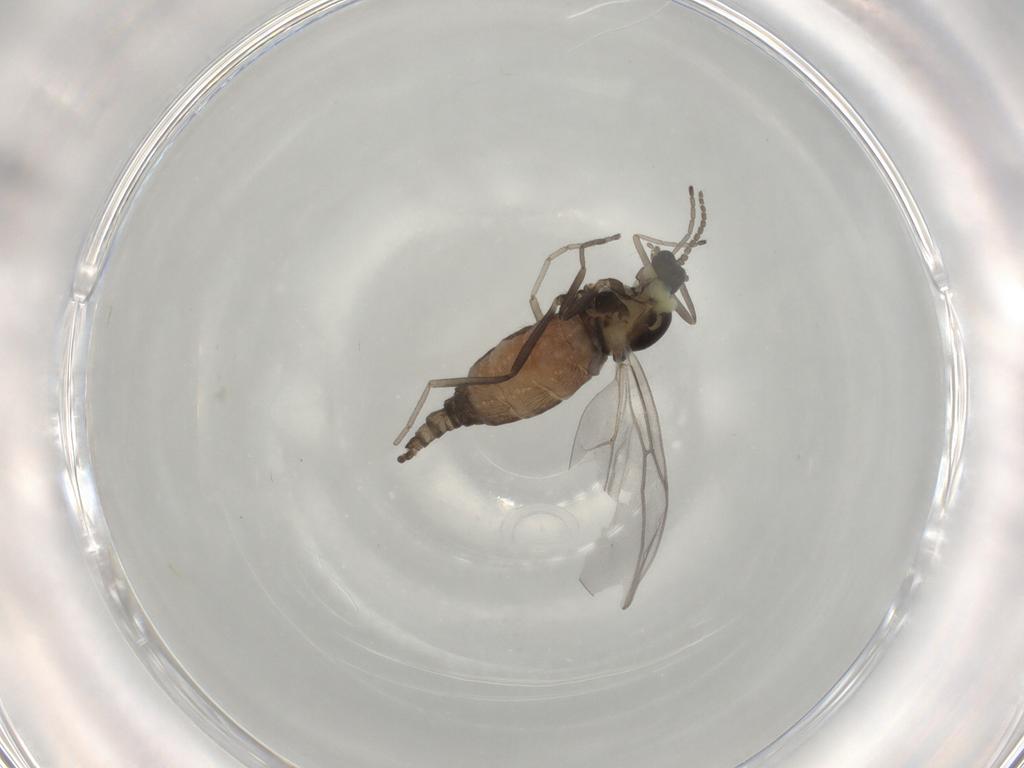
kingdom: Animalia
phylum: Arthropoda
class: Insecta
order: Diptera
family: Cecidomyiidae
